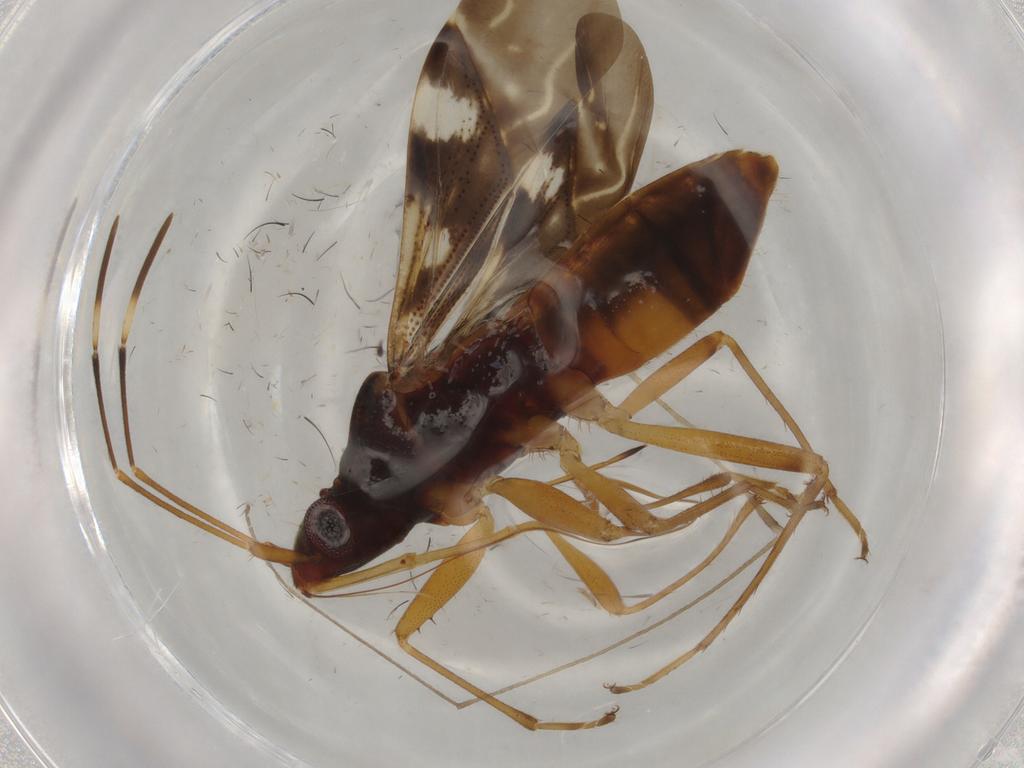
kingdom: Animalia
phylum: Arthropoda
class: Insecta
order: Hemiptera
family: Rhyparochromidae
